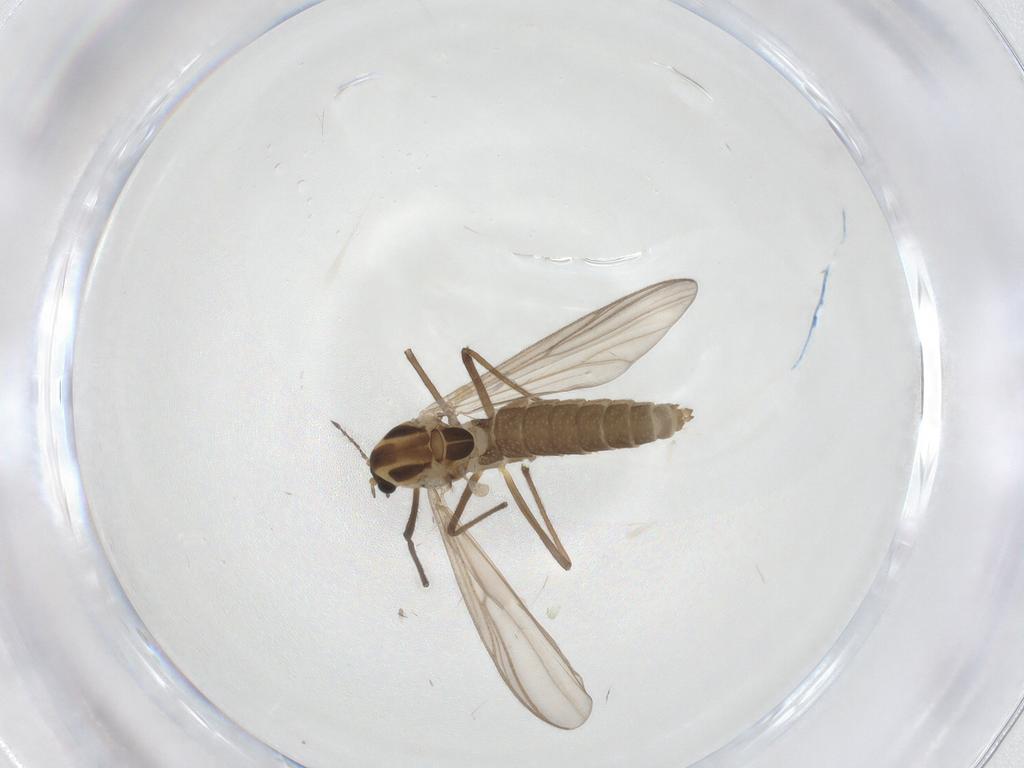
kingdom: Animalia
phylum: Arthropoda
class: Insecta
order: Diptera
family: Chironomidae
